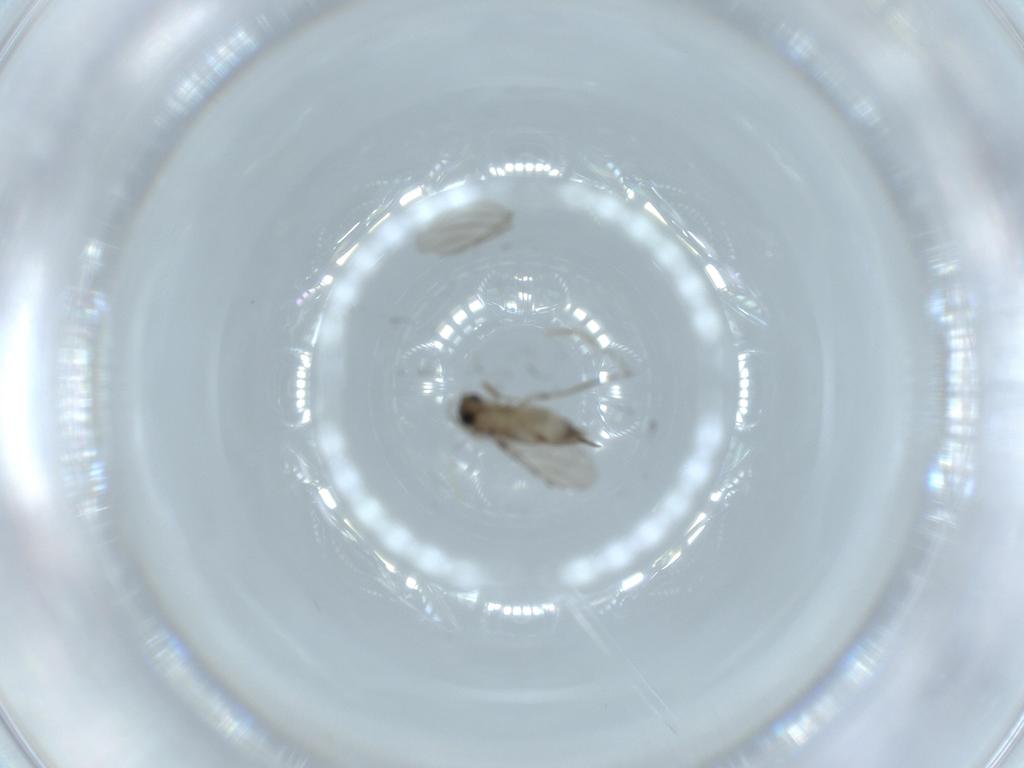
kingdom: Animalia
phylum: Arthropoda
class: Insecta
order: Diptera
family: Phoridae
